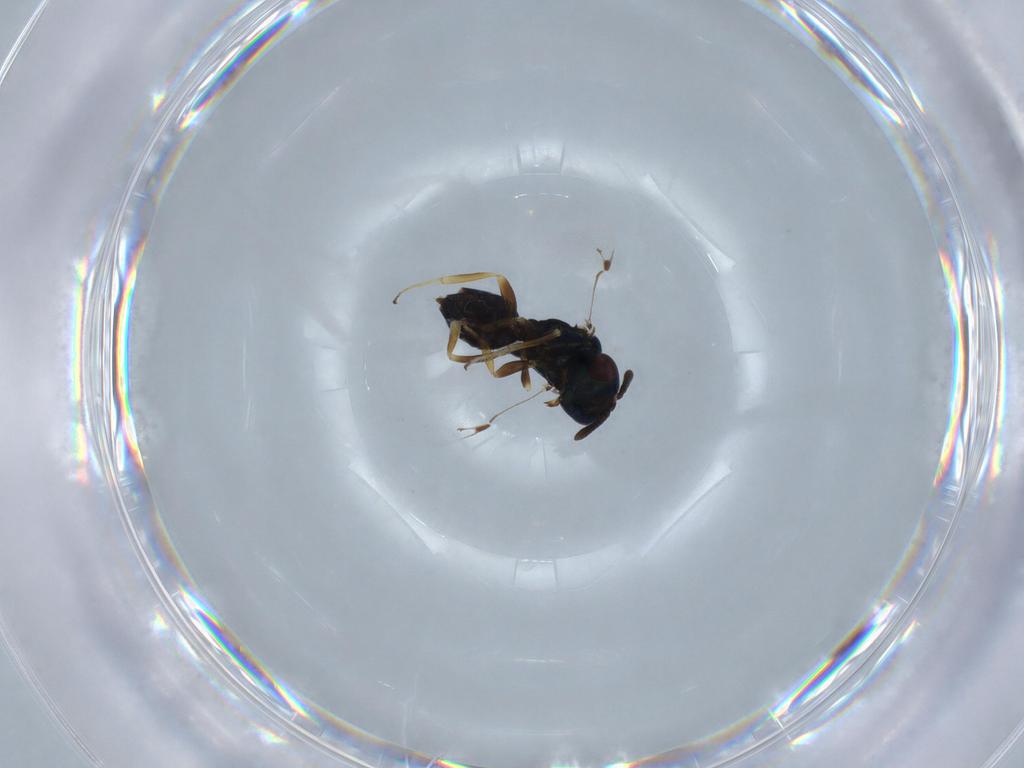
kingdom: Animalia
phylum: Arthropoda
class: Insecta
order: Hymenoptera
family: Pteromalidae
